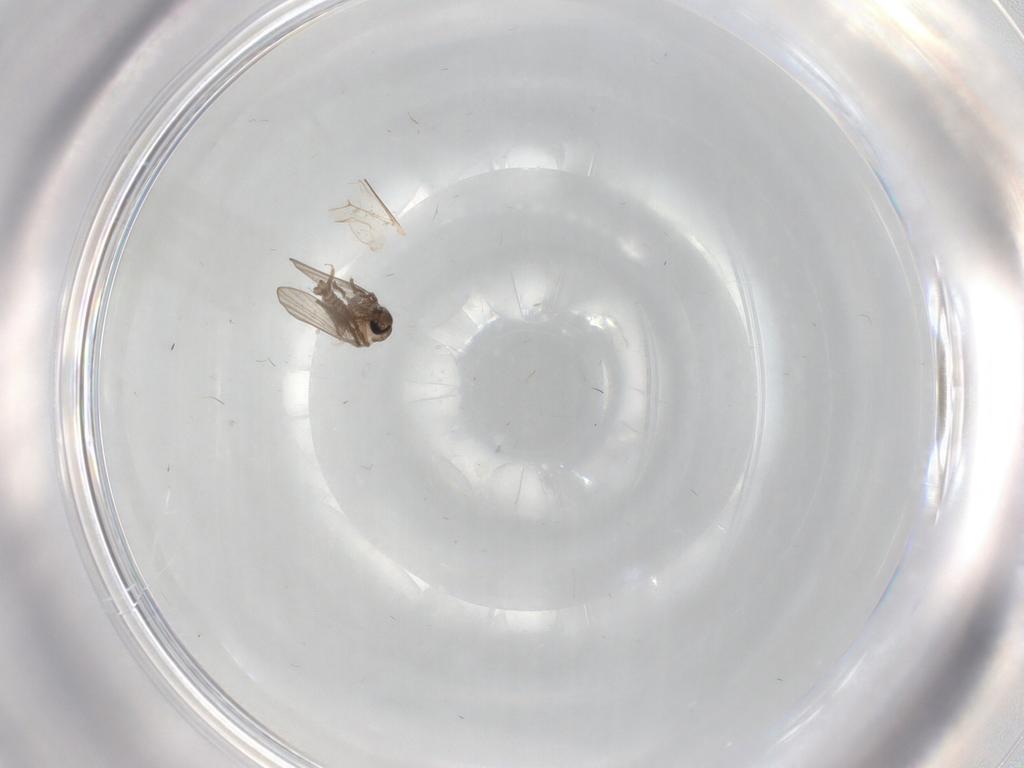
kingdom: Animalia
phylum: Arthropoda
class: Insecta
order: Diptera
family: Psychodidae
